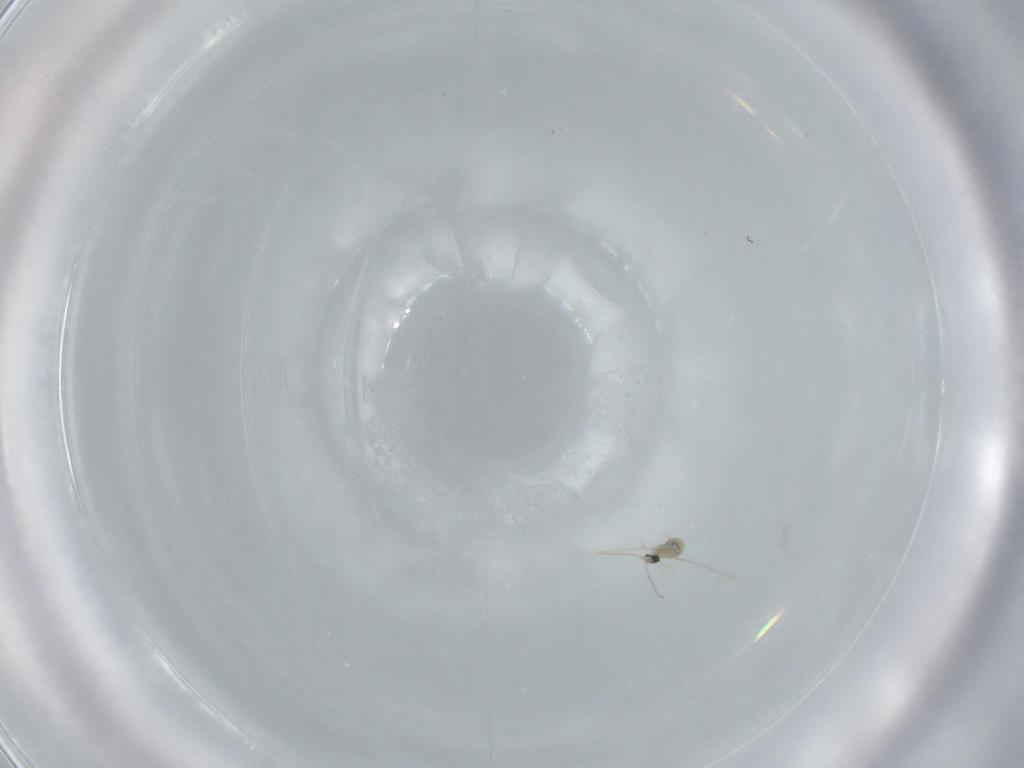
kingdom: Animalia
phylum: Arthropoda
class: Insecta
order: Diptera
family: Cecidomyiidae
